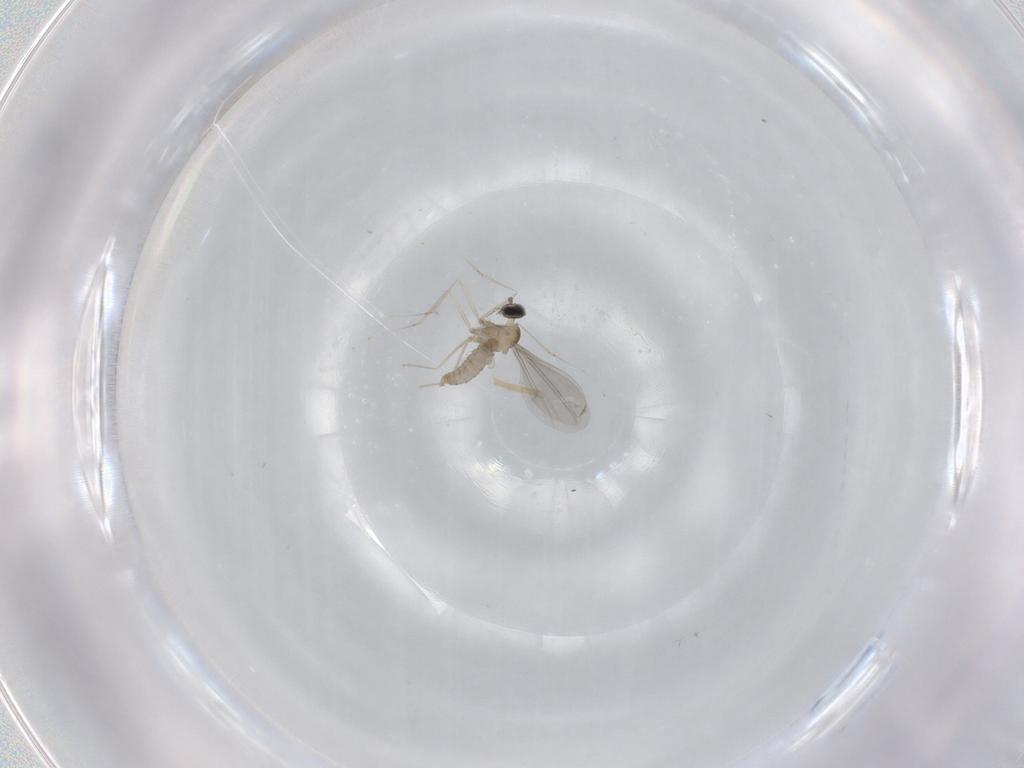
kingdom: Animalia
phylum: Arthropoda
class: Insecta
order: Diptera
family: Cecidomyiidae
